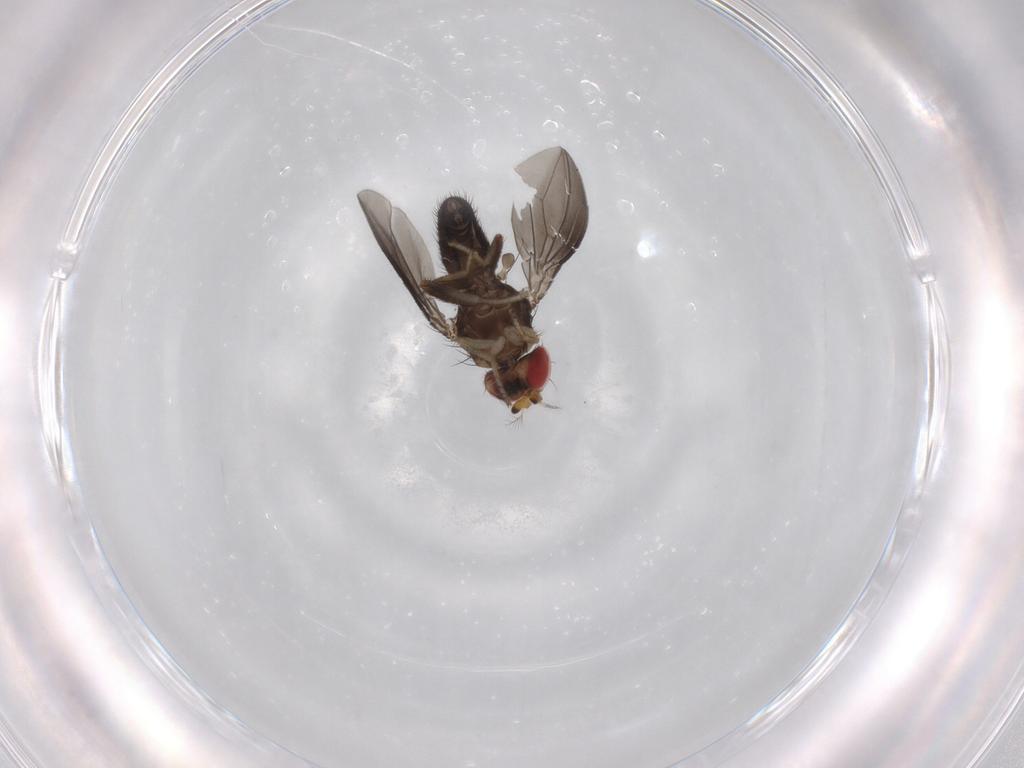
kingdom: Animalia
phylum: Arthropoda
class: Insecta
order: Diptera
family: Drosophilidae
